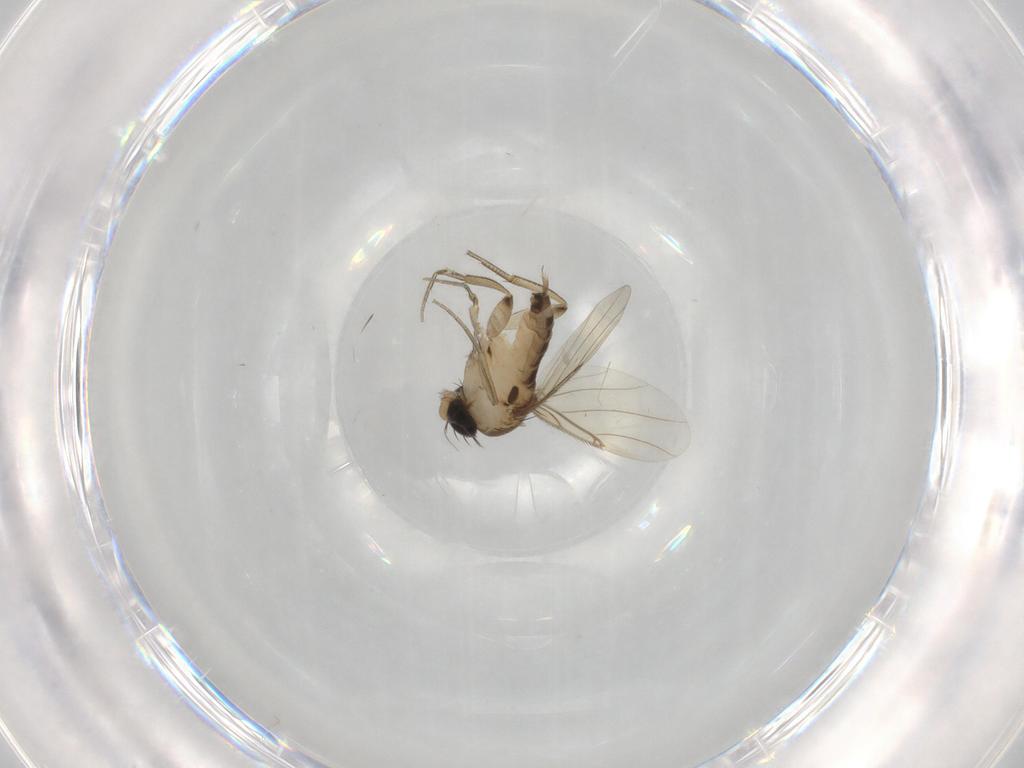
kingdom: Animalia
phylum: Arthropoda
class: Insecta
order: Diptera
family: Phoridae
